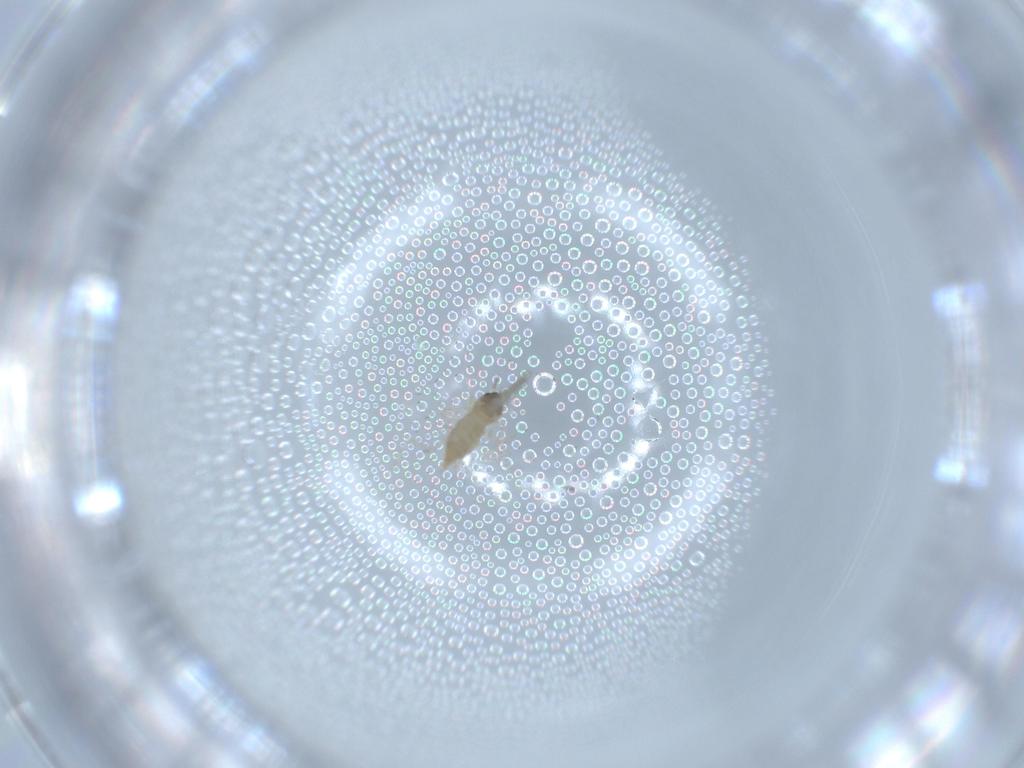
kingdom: Animalia
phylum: Arthropoda
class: Insecta
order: Diptera
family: Cecidomyiidae
